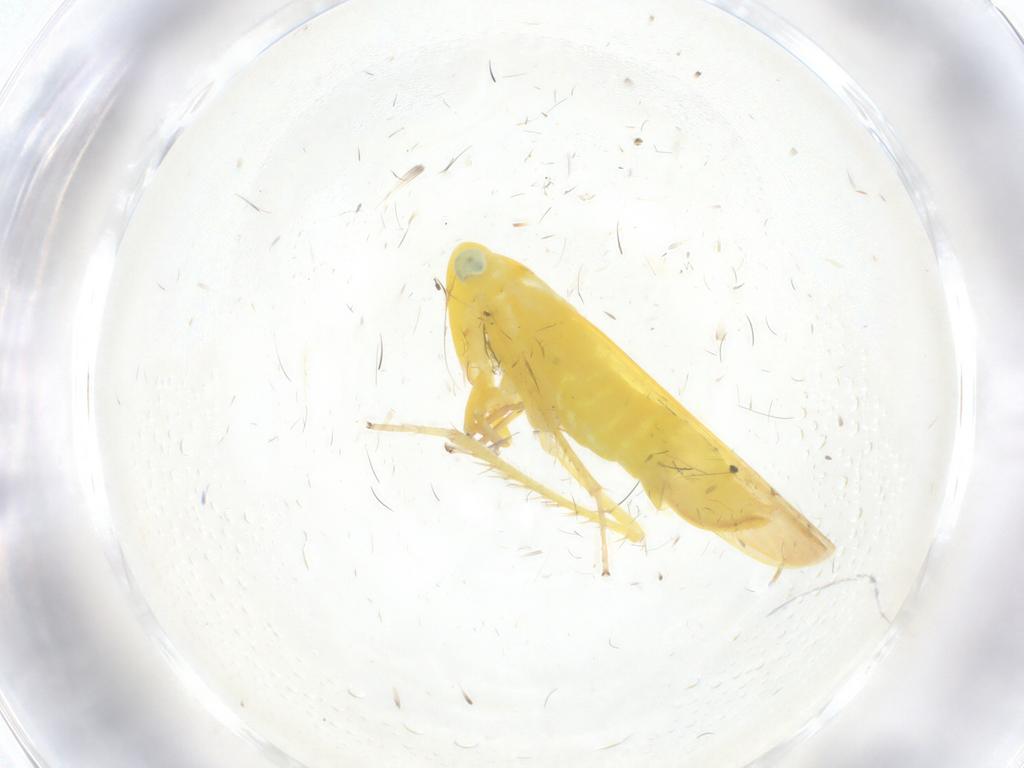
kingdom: Animalia
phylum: Arthropoda
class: Insecta
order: Hemiptera
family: Cicadellidae
